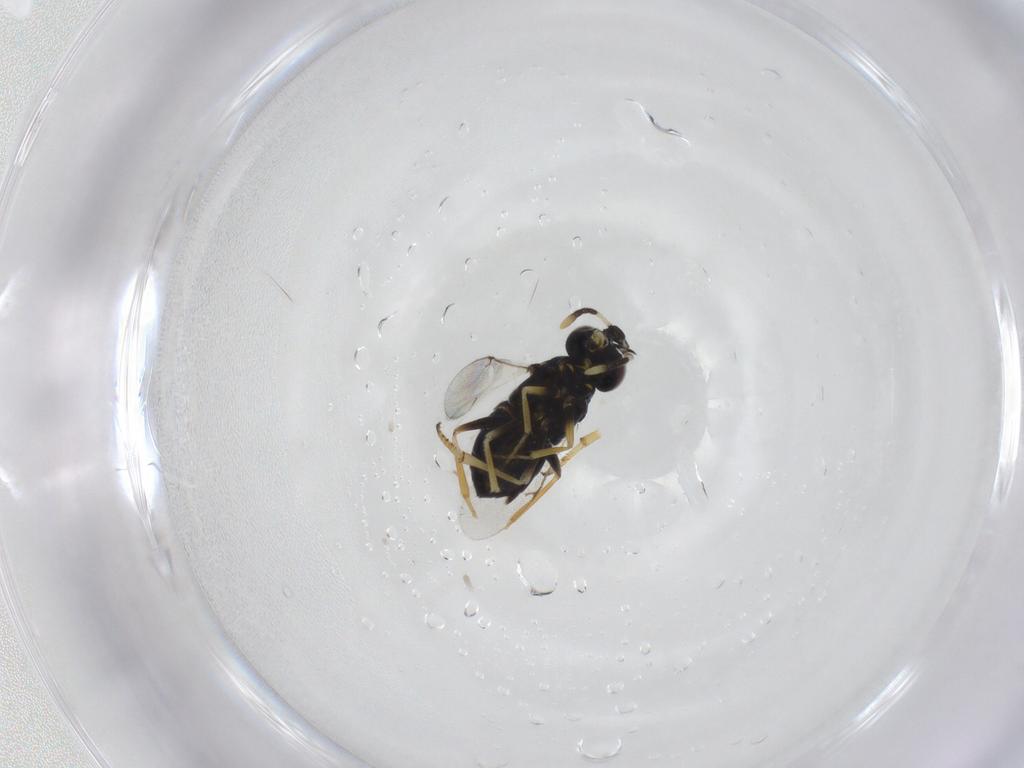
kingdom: Animalia
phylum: Arthropoda
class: Insecta
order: Hymenoptera
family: Encyrtidae
